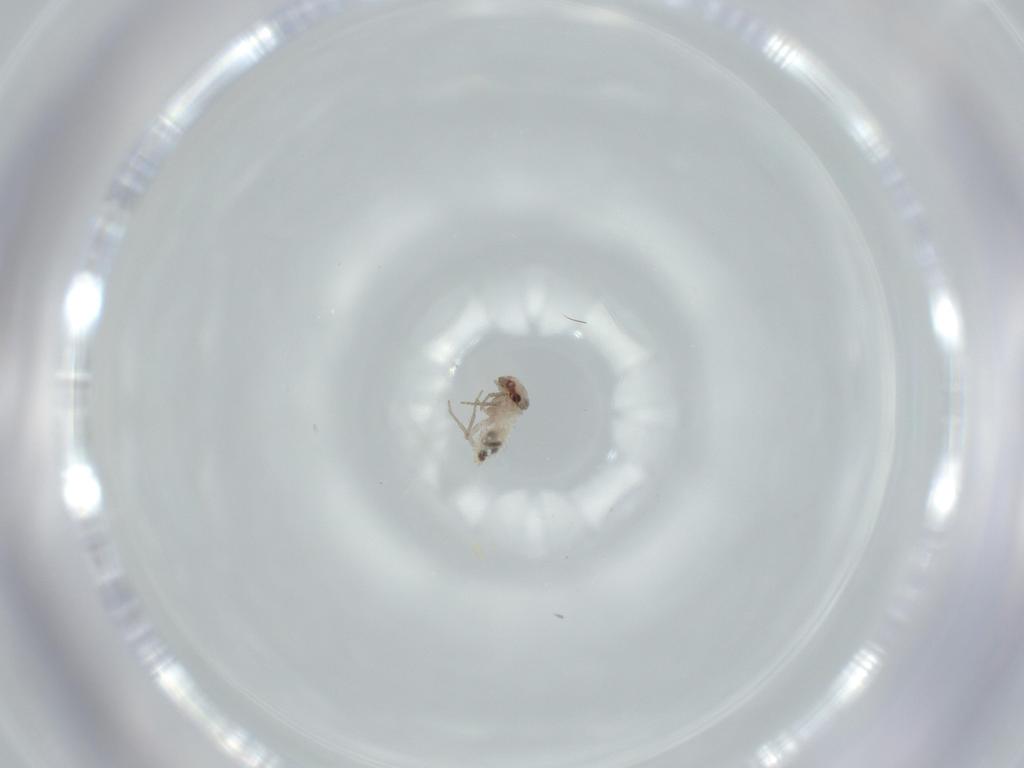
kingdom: Animalia
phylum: Arthropoda
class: Insecta
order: Psocodea
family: Lepidopsocidae
